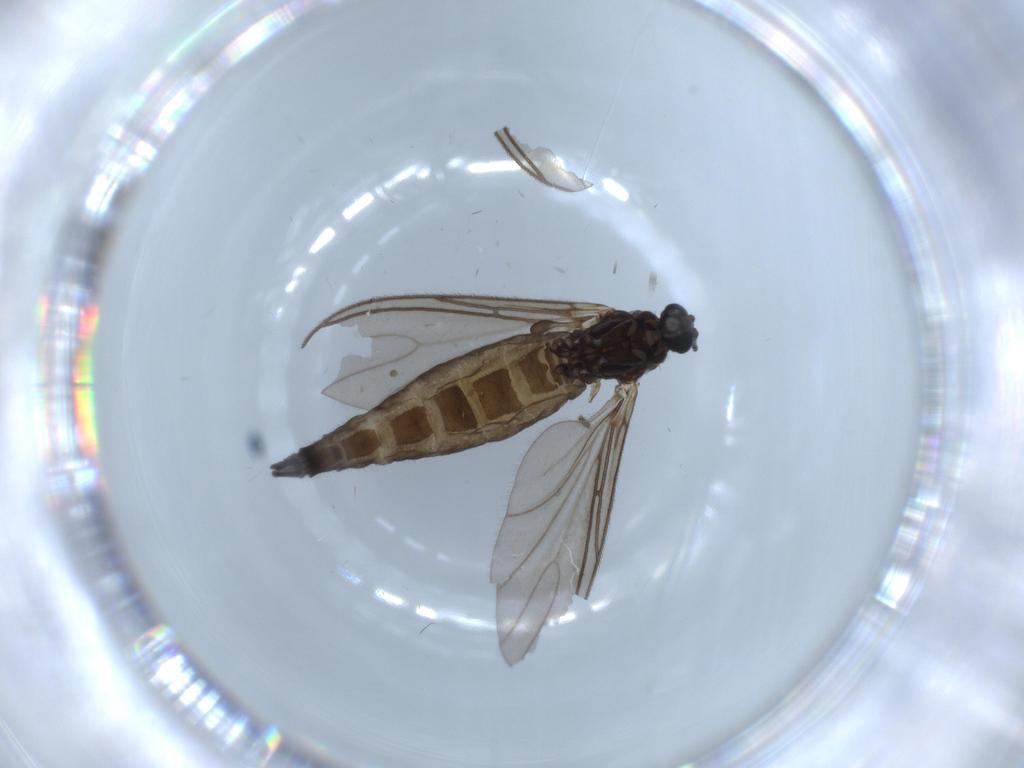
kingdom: Animalia
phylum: Arthropoda
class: Insecta
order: Diptera
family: Sciaridae
